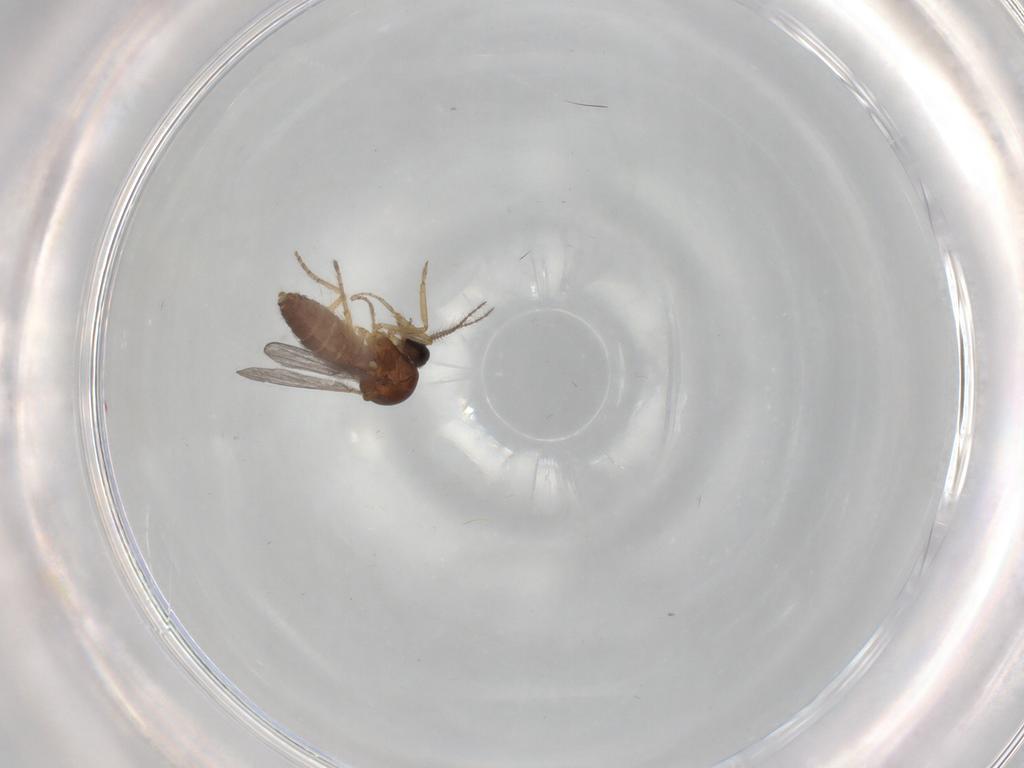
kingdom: Animalia
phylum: Arthropoda
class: Insecta
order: Diptera
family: Ceratopogonidae
